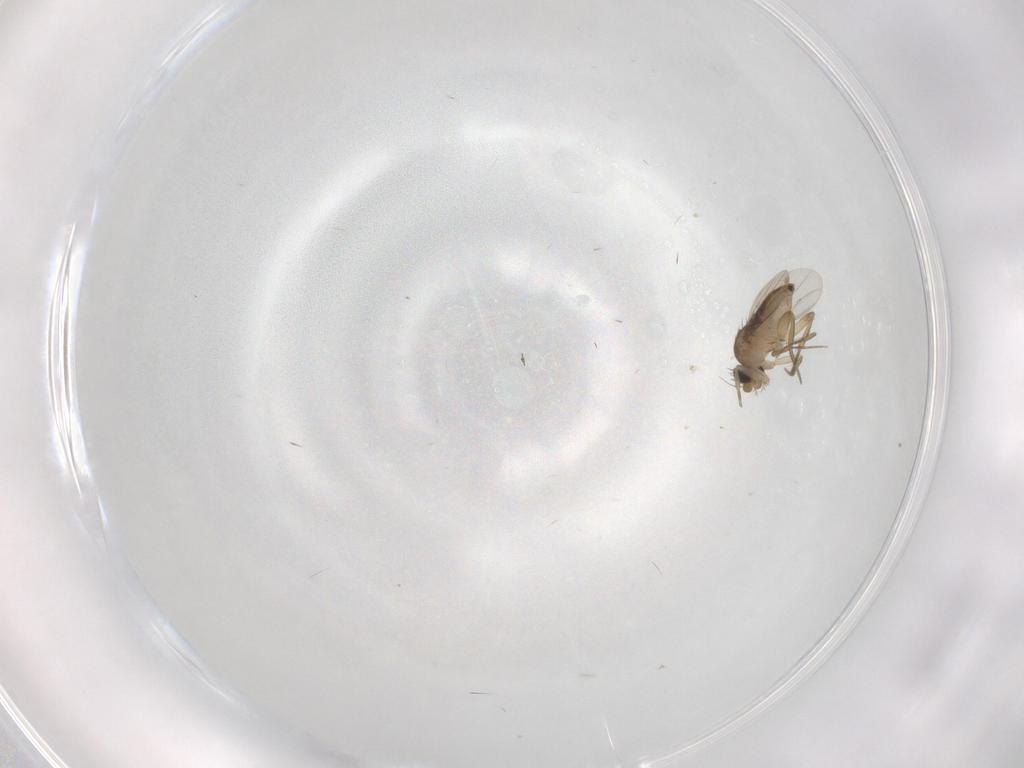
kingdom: Animalia
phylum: Arthropoda
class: Insecta
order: Diptera
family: Phoridae
